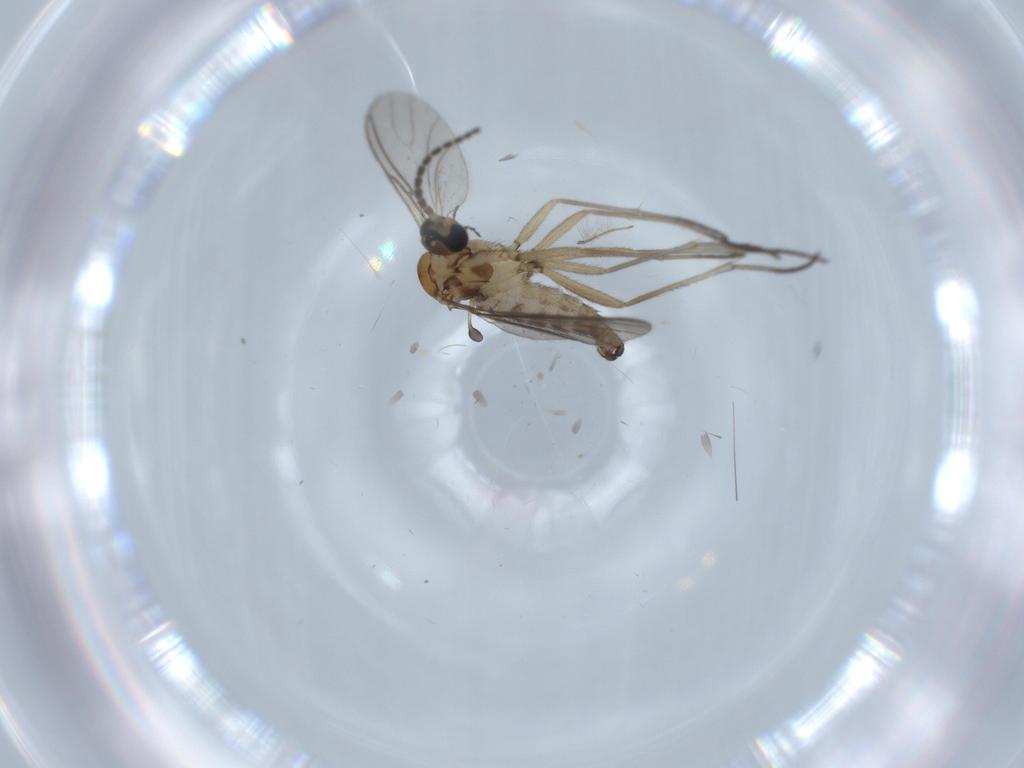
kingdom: Animalia
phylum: Arthropoda
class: Insecta
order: Diptera
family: Sciaridae
